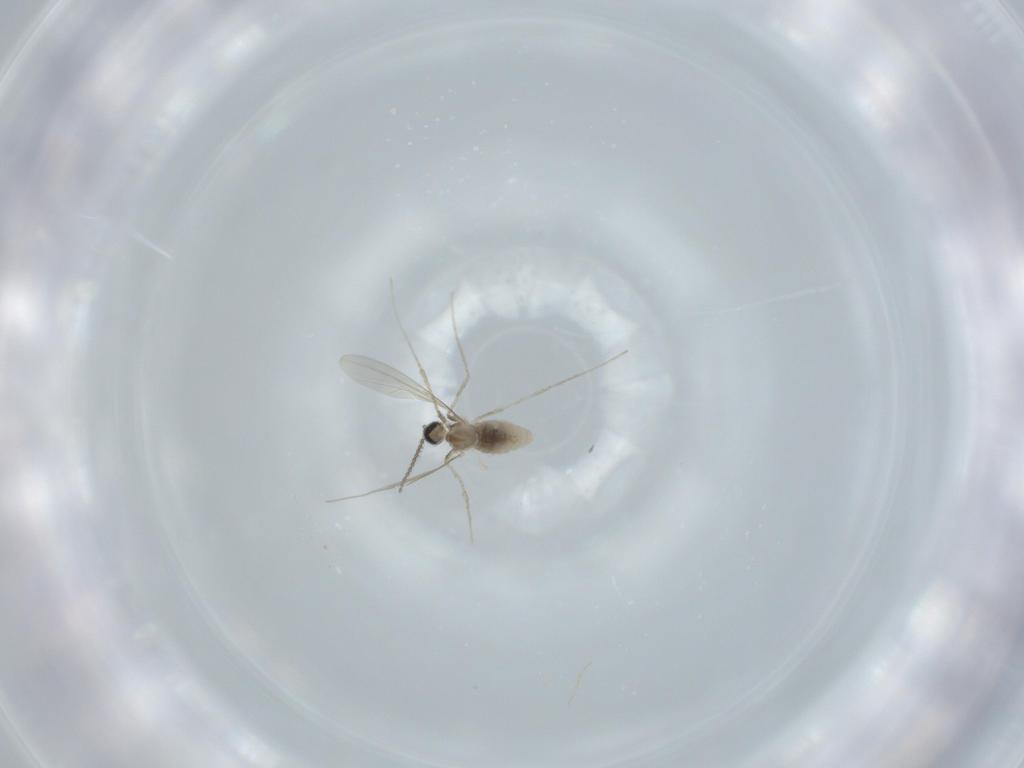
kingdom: Animalia
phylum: Arthropoda
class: Insecta
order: Diptera
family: Cecidomyiidae
